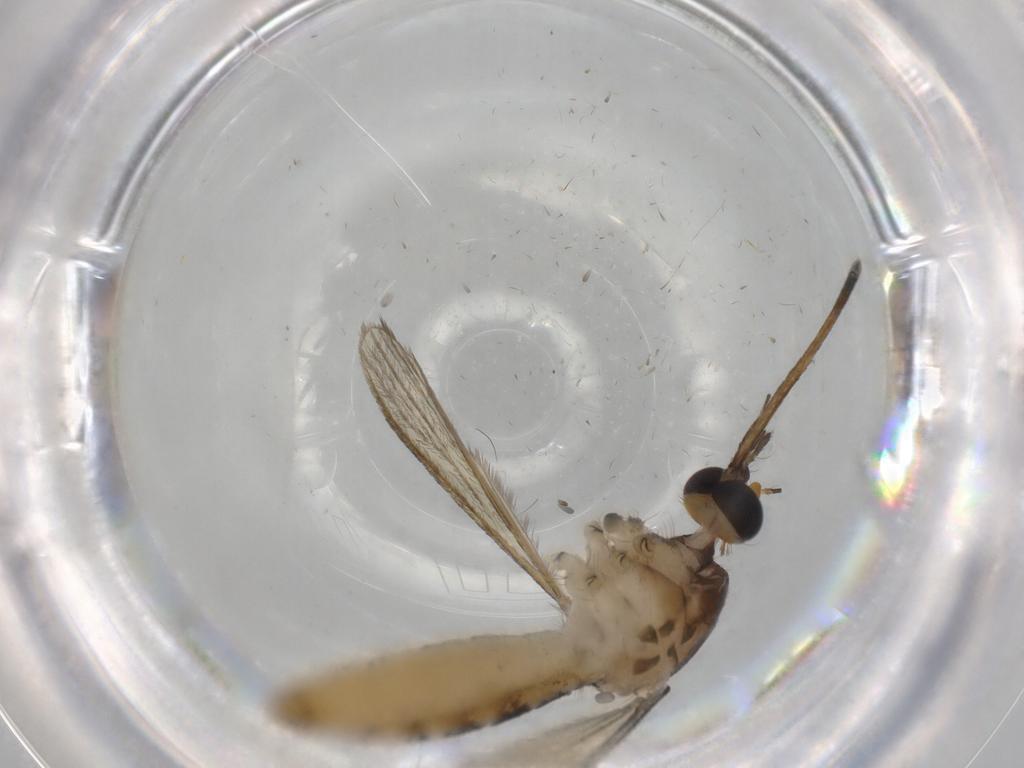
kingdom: Animalia
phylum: Arthropoda
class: Insecta
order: Diptera
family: Culicidae
